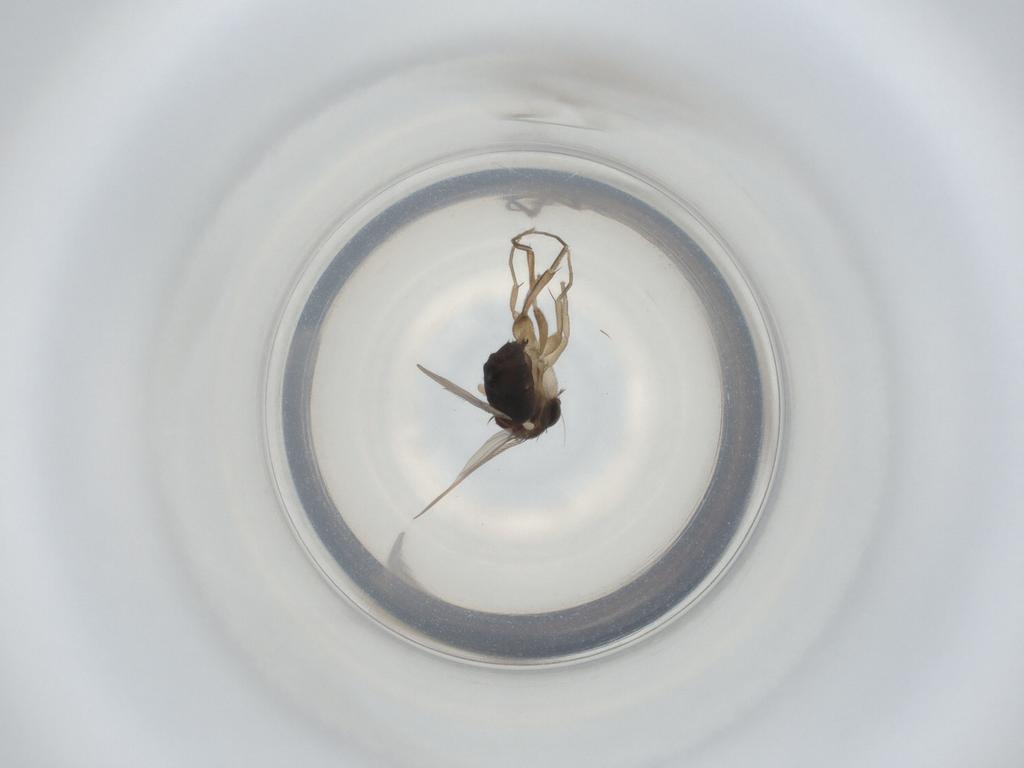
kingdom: Animalia
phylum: Arthropoda
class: Insecta
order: Diptera
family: Phoridae
